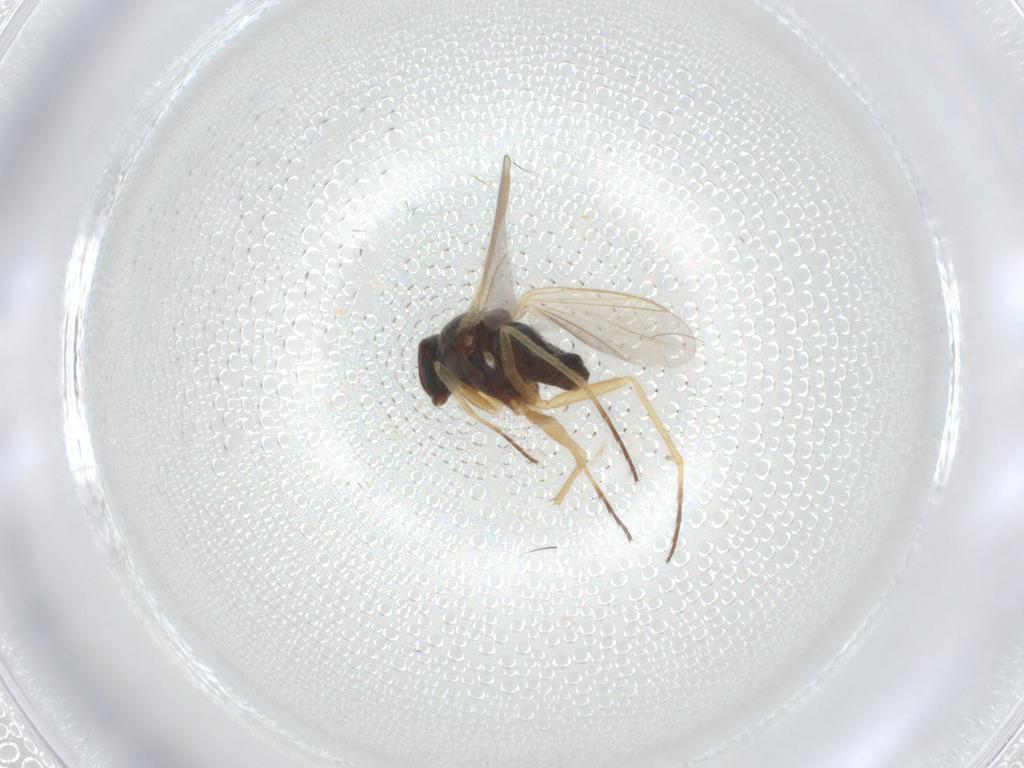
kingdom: Animalia
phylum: Arthropoda
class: Insecta
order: Diptera
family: Dolichopodidae
